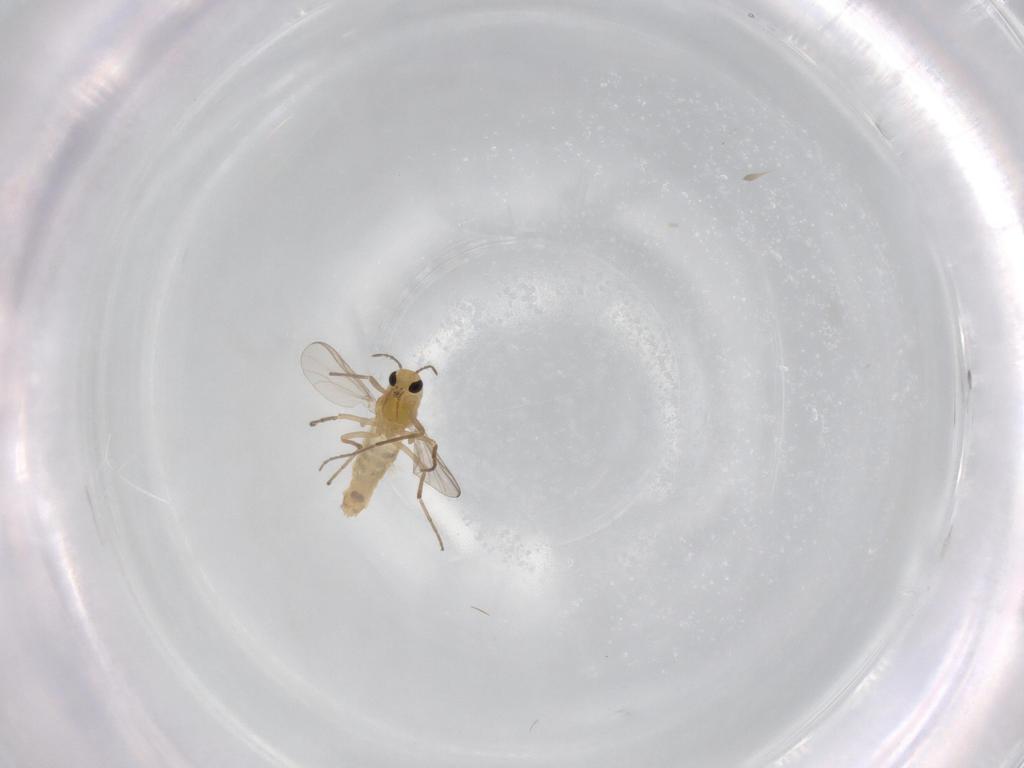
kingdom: Animalia
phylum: Arthropoda
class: Insecta
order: Diptera
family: Chironomidae
